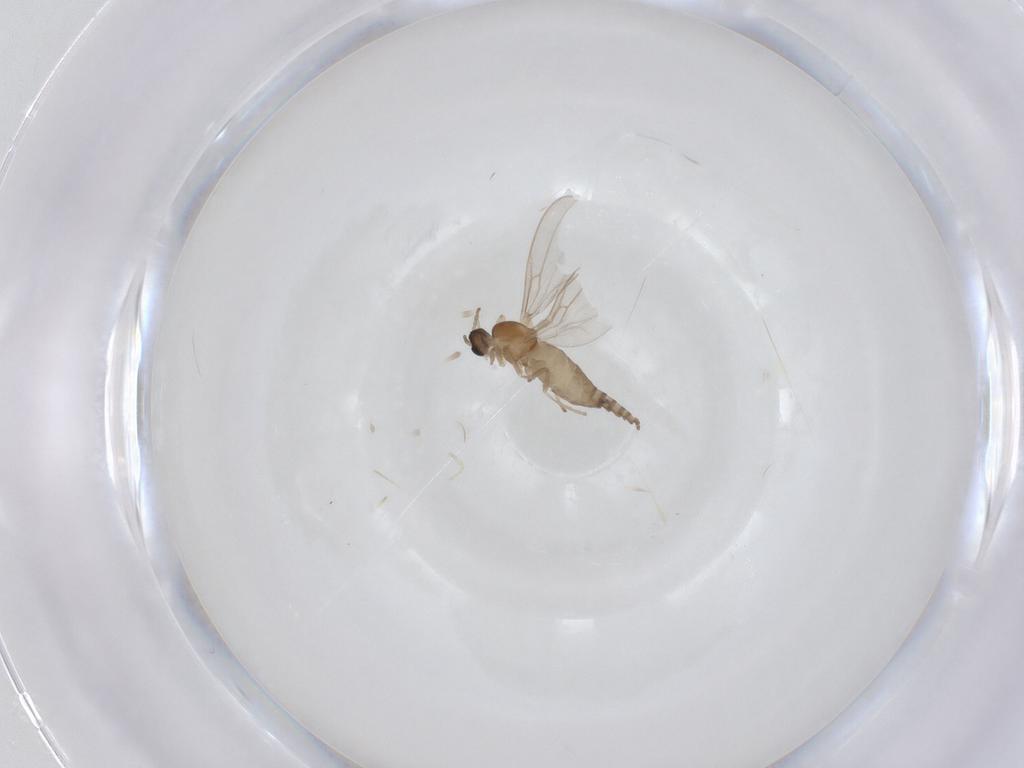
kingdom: Animalia
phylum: Arthropoda
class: Insecta
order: Diptera
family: Cecidomyiidae
